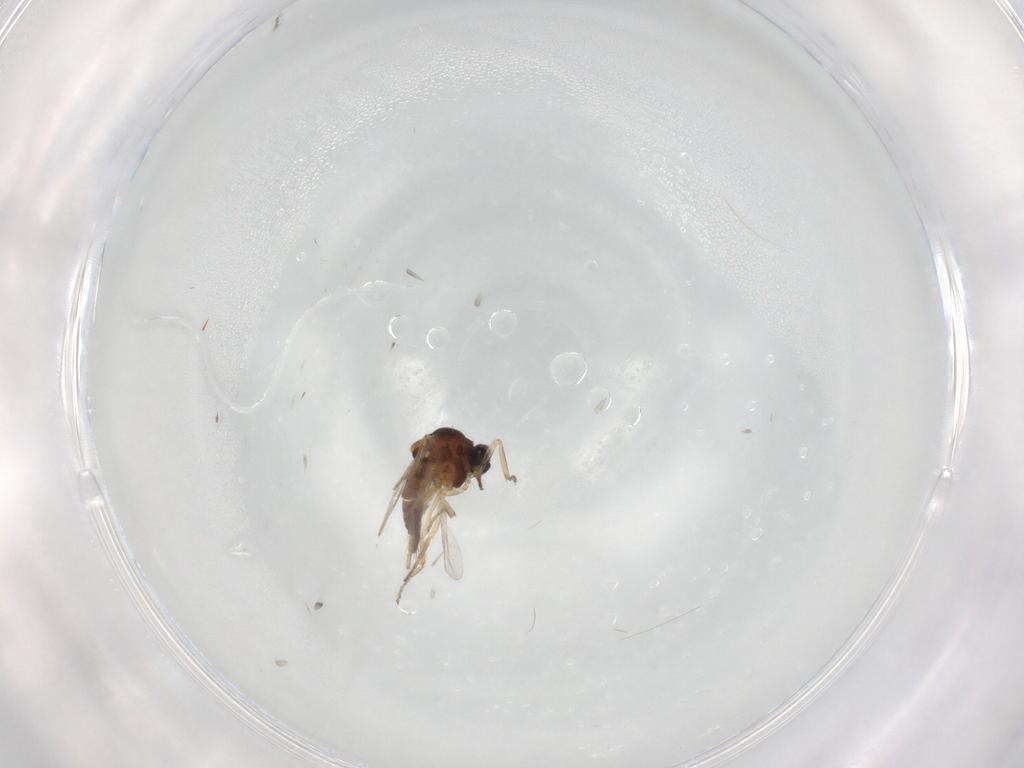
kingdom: Animalia
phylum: Arthropoda
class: Insecta
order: Diptera
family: Ceratopogonidae
